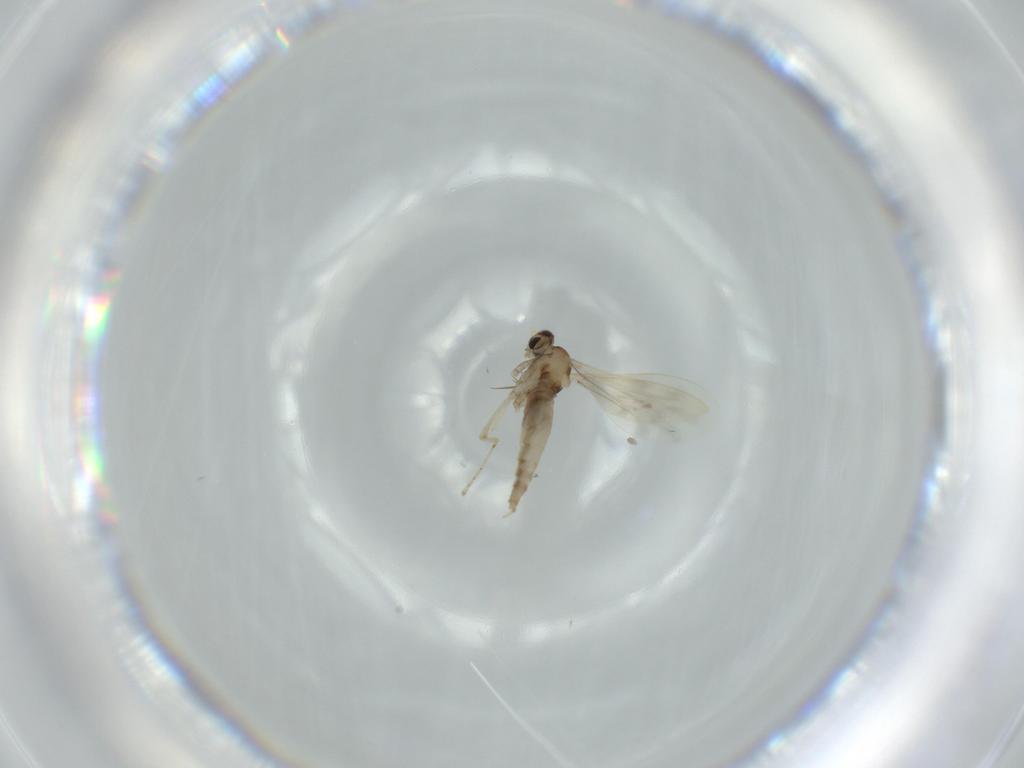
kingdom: Animalia
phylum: Arthropoda
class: Insecta
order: Diptera
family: Cecidomyiidae
